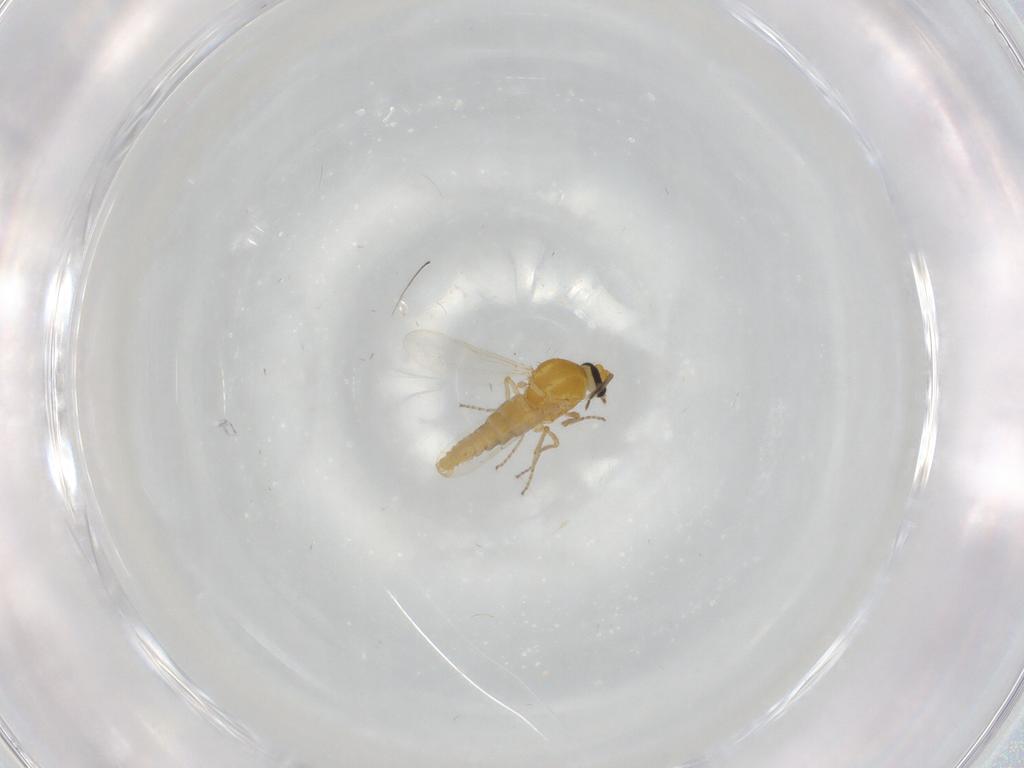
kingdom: Animalia
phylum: Arthropoda
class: Insecta
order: Diptera
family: Ceratopogonidae
